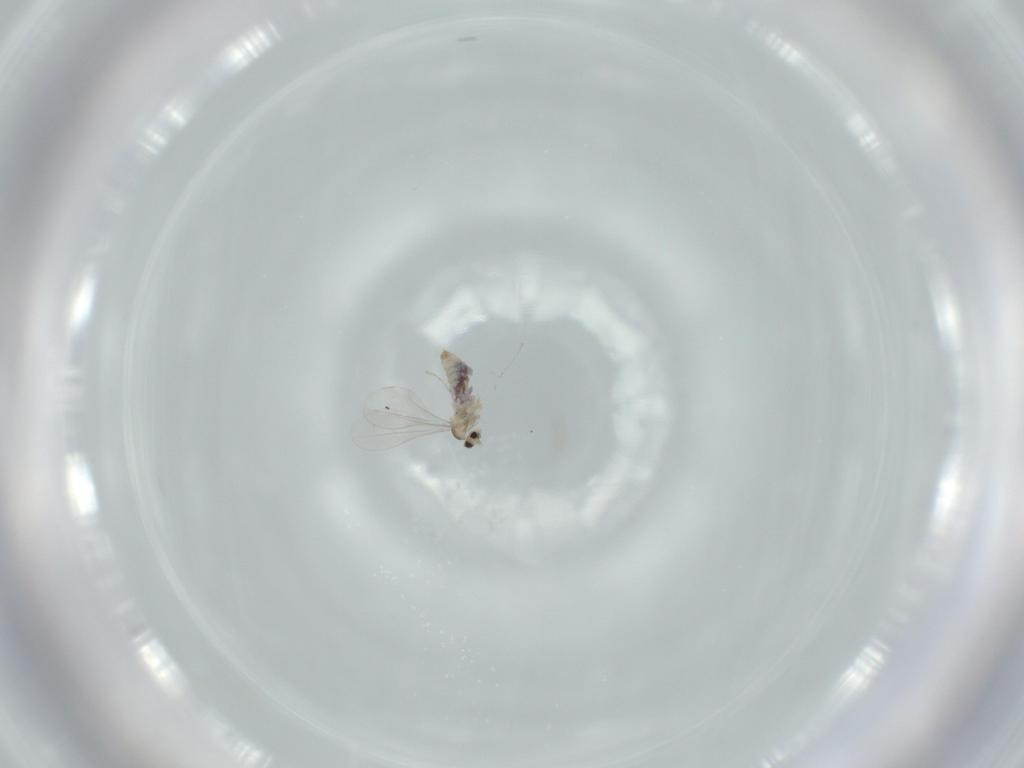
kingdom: Animalia
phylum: Arthropoda
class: Insecta
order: Diptera
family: Cecidomyiidae
